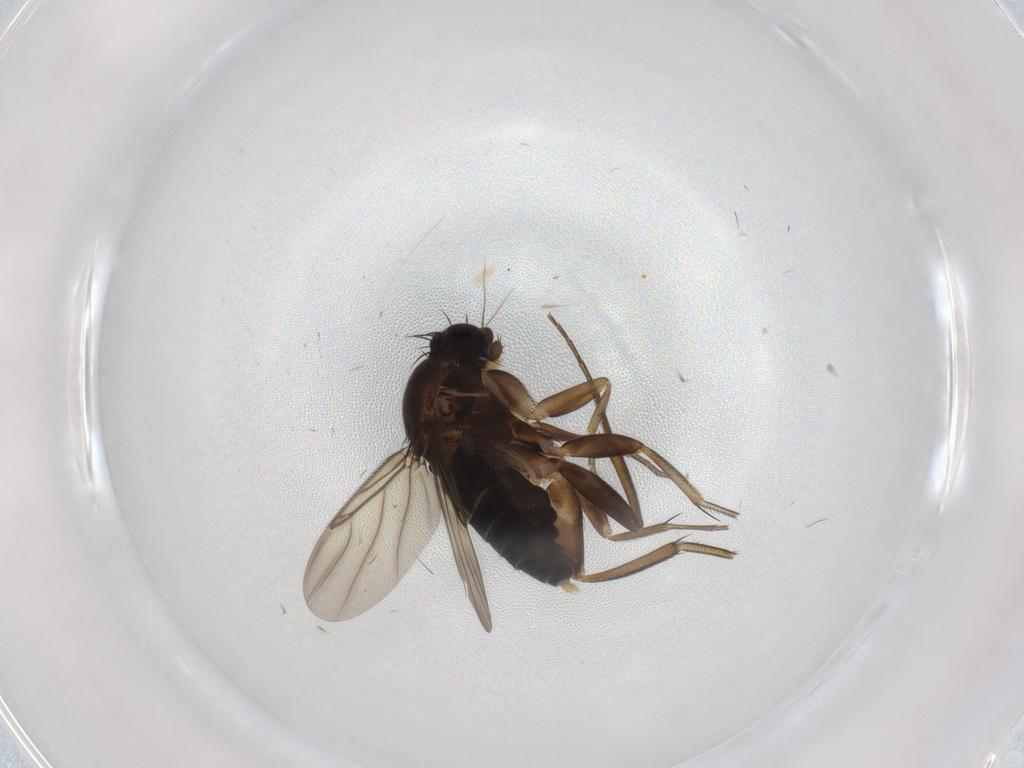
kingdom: Animalia
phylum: Arthropoda
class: Insecta
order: Diptera
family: Phoridae
